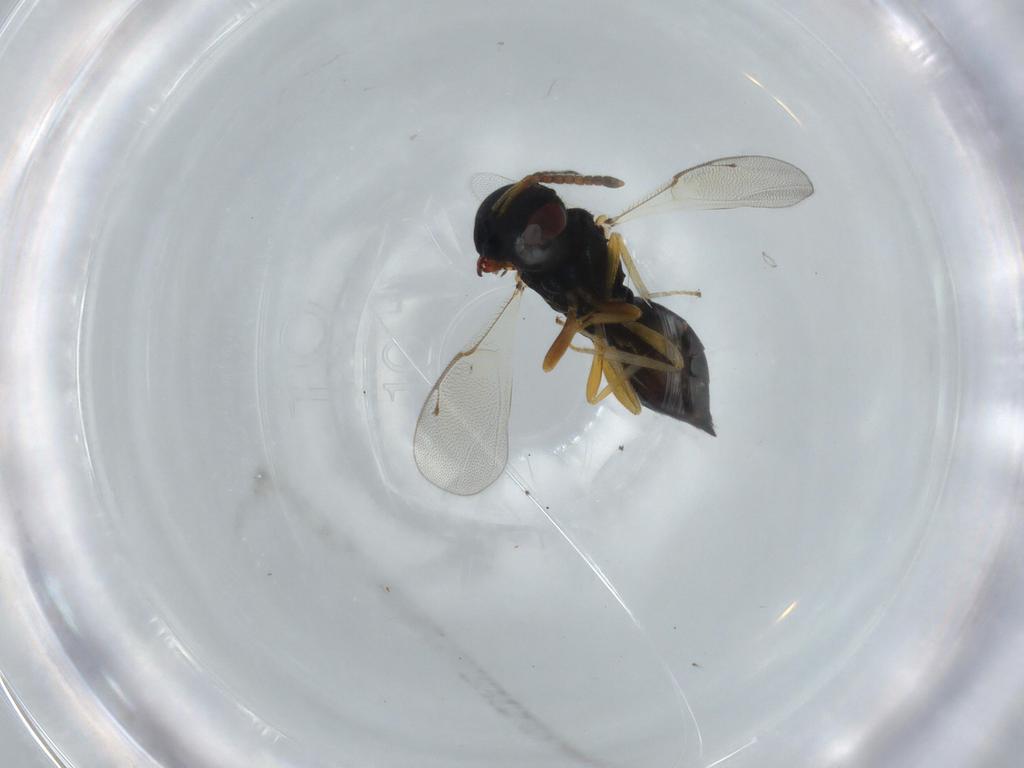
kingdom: Animalia
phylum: Arthropoda
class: Insecta
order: Hymenoptera
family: Pteromalidae
